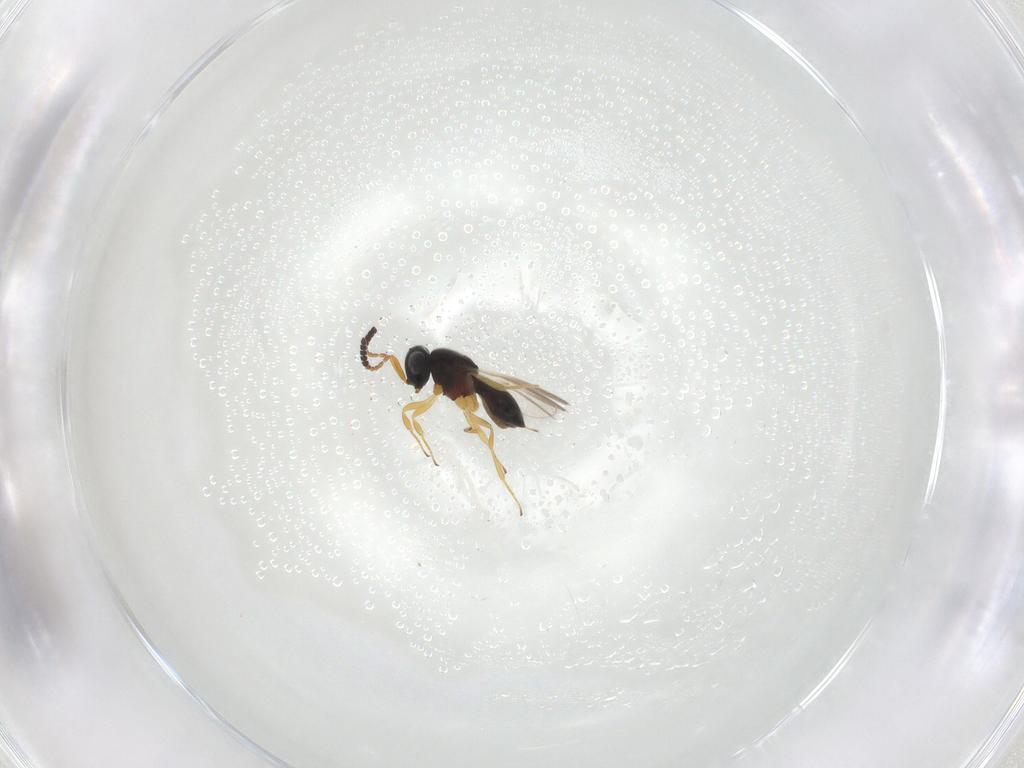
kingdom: Animalia
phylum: Arthropoda
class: Insecta
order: Hymenoptera
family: Scelionidae
